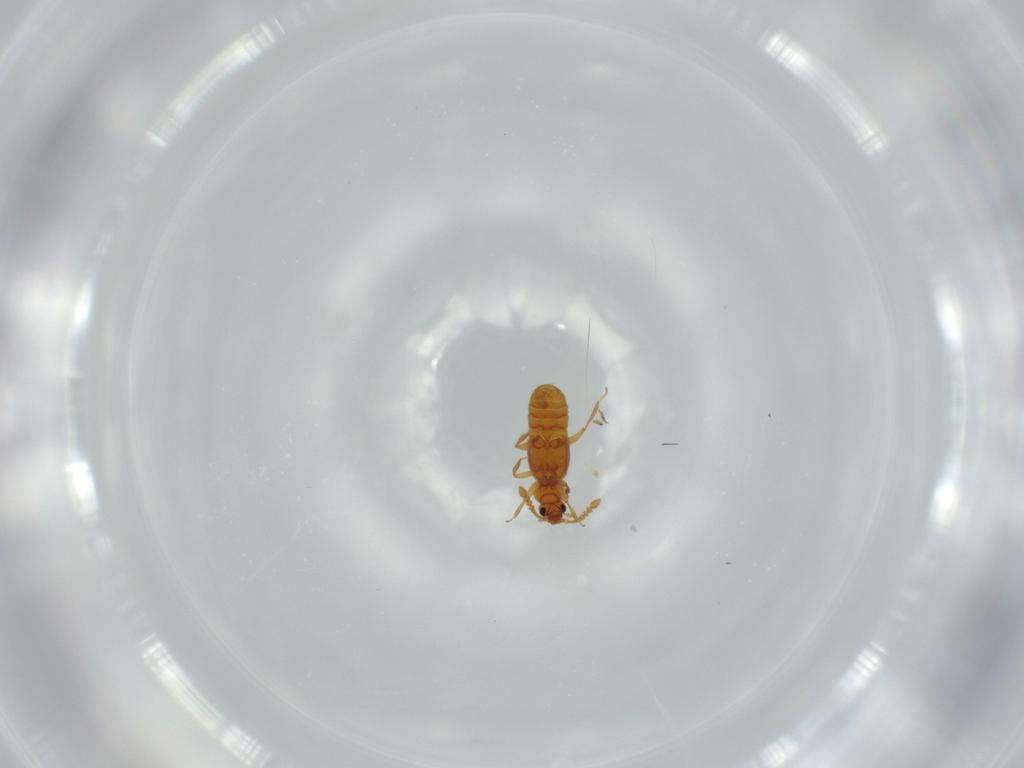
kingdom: Animalia
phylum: Arthropoda
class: Insecta
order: Coleoptera
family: Staphylinidae
